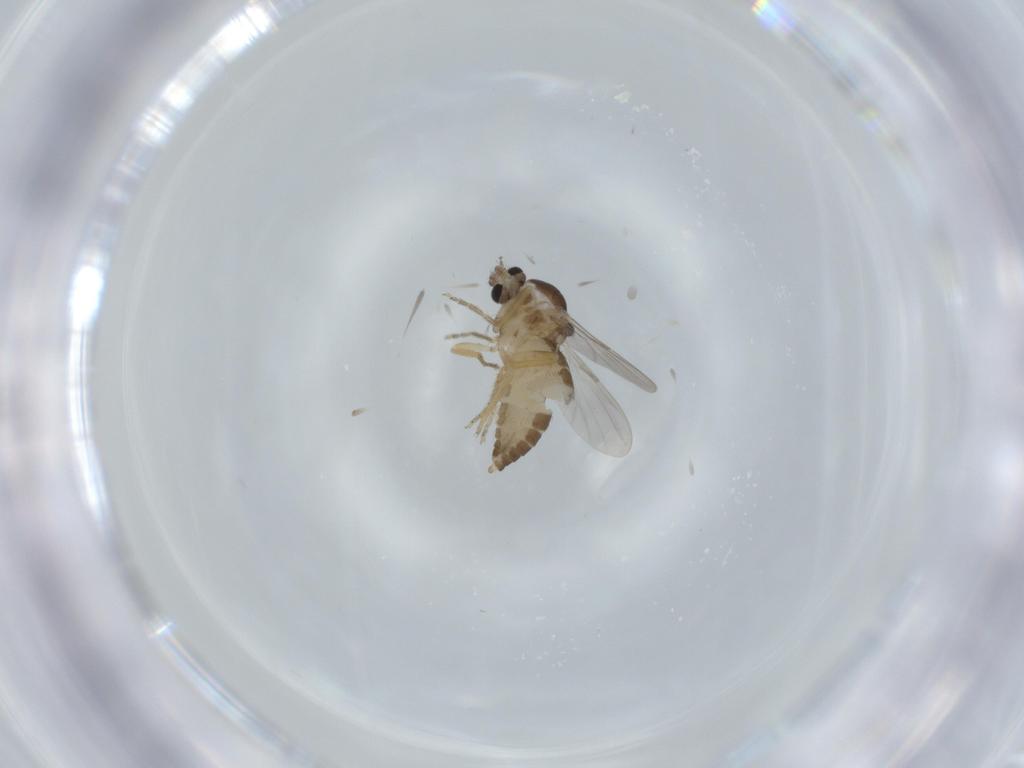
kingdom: Animalia
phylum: Arthropoda
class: Insecta
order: Diptera
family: Ceratopogonidae
